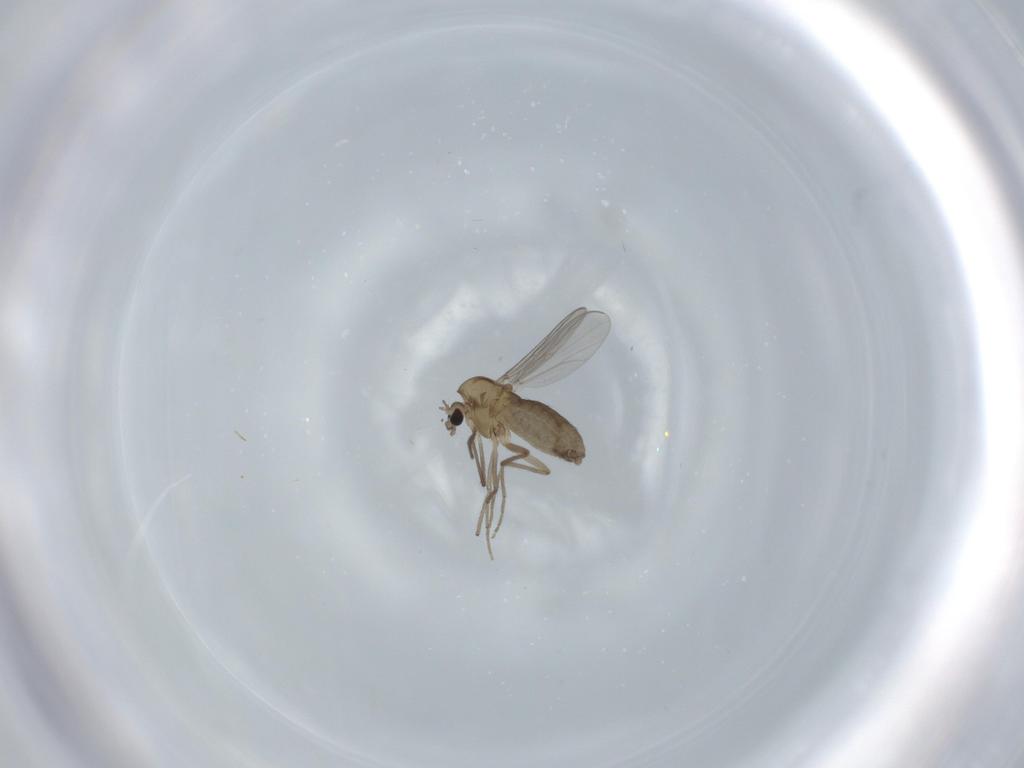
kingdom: Animalia
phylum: Arthropoda
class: Insecta
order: Diptera
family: Chironomidae
